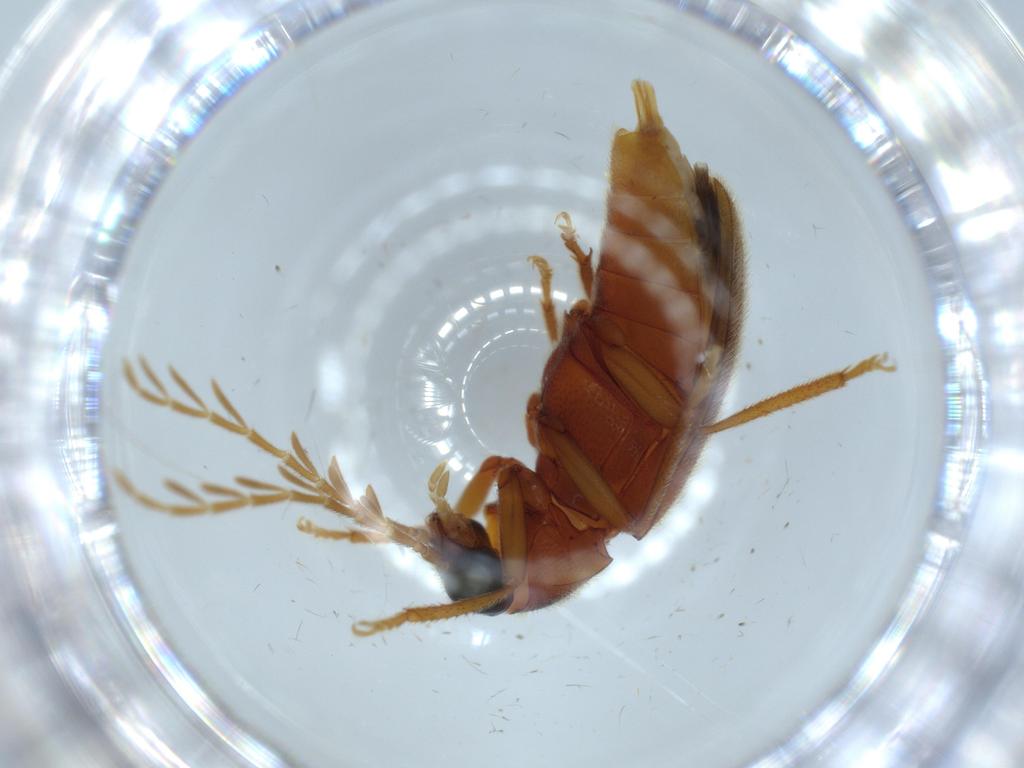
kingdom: Animalia
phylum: Arthropoda
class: Insecta
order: Coleoptera
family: Ptilodactylidae
